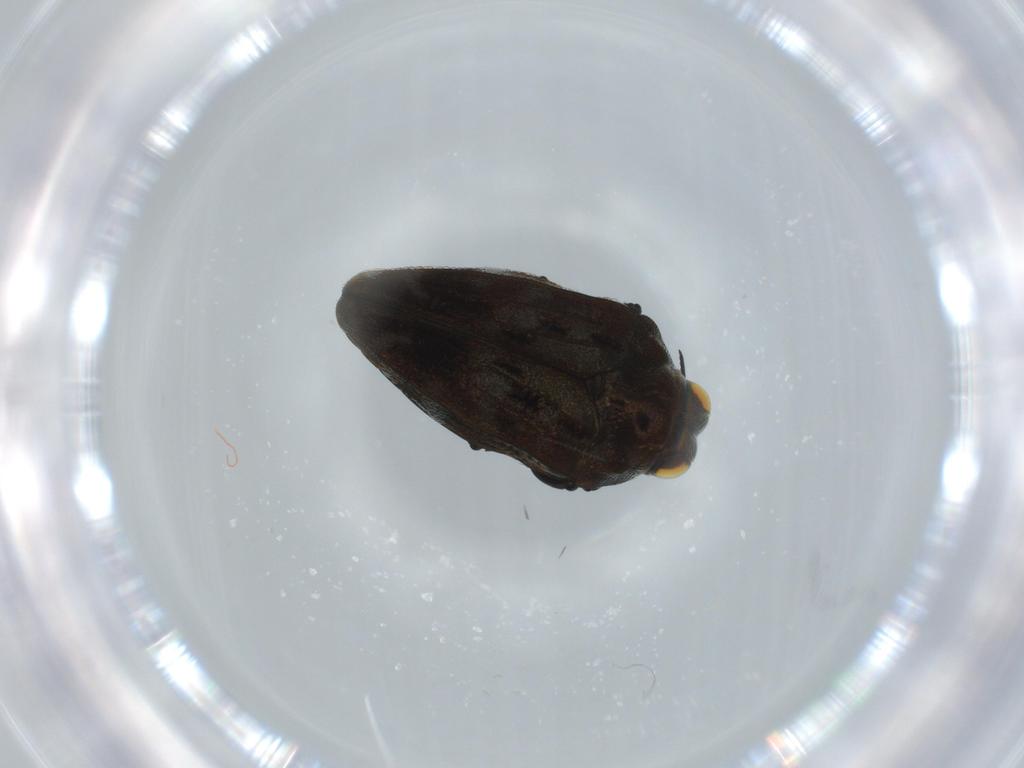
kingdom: Animalia
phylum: Arthropoda
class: Insecta
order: Coleoptera
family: Buprestidae
